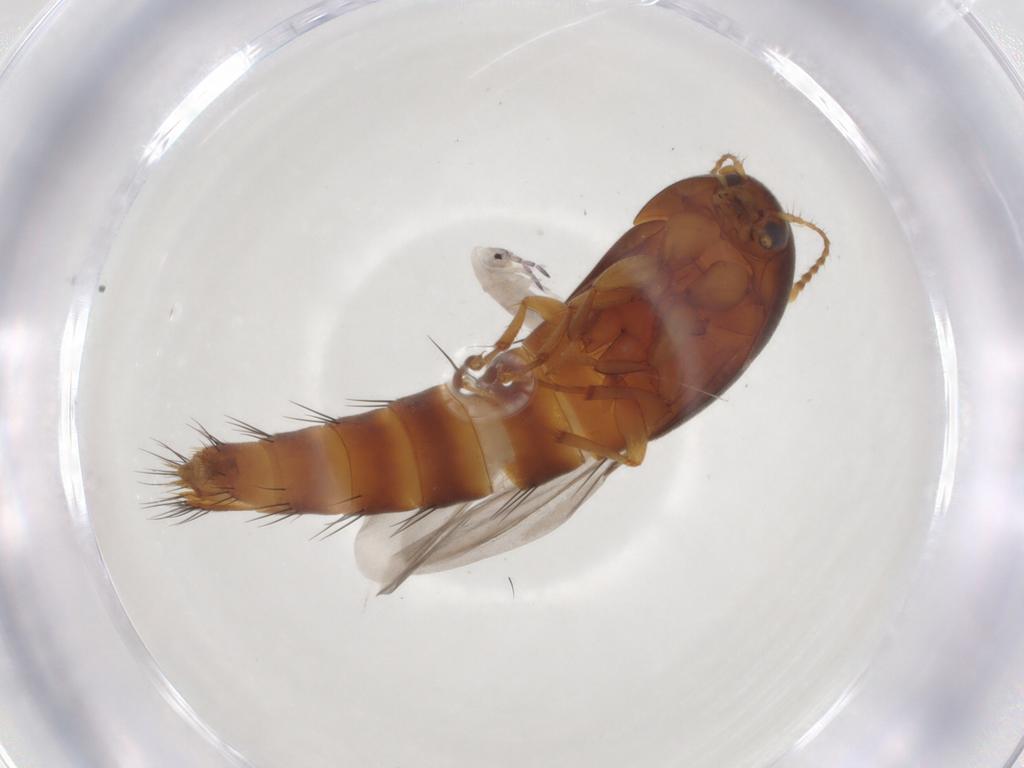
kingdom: Animalia
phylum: Arthropoda
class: Insecta
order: Coleoptera
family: Staphylinidae
